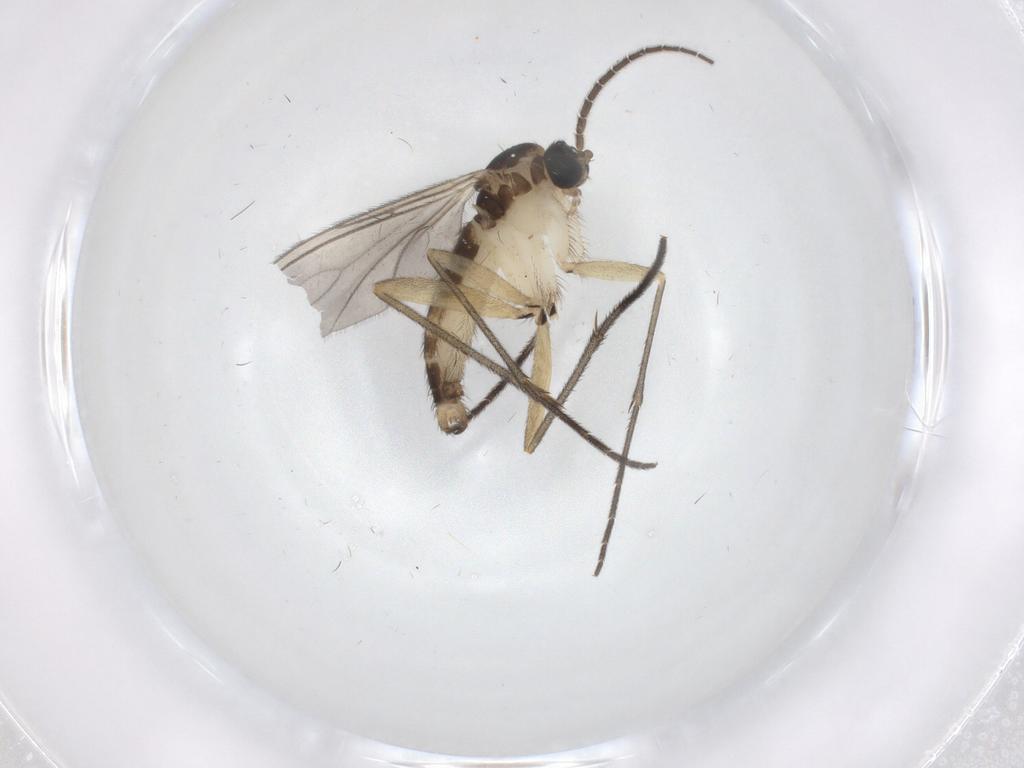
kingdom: Animalia
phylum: Arthropoda
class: Insecta
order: Diptera
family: Sciaridae
